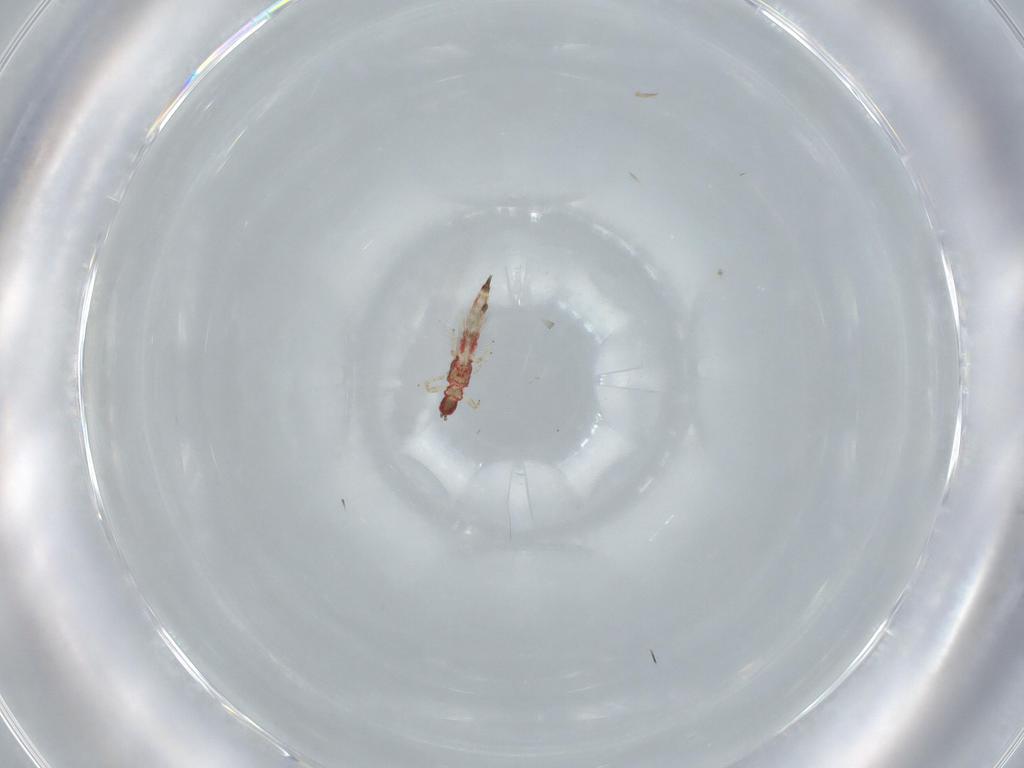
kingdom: Animalia
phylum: Arthropoda
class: Insecta
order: Thysanoptera
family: Phlaeothripidae
